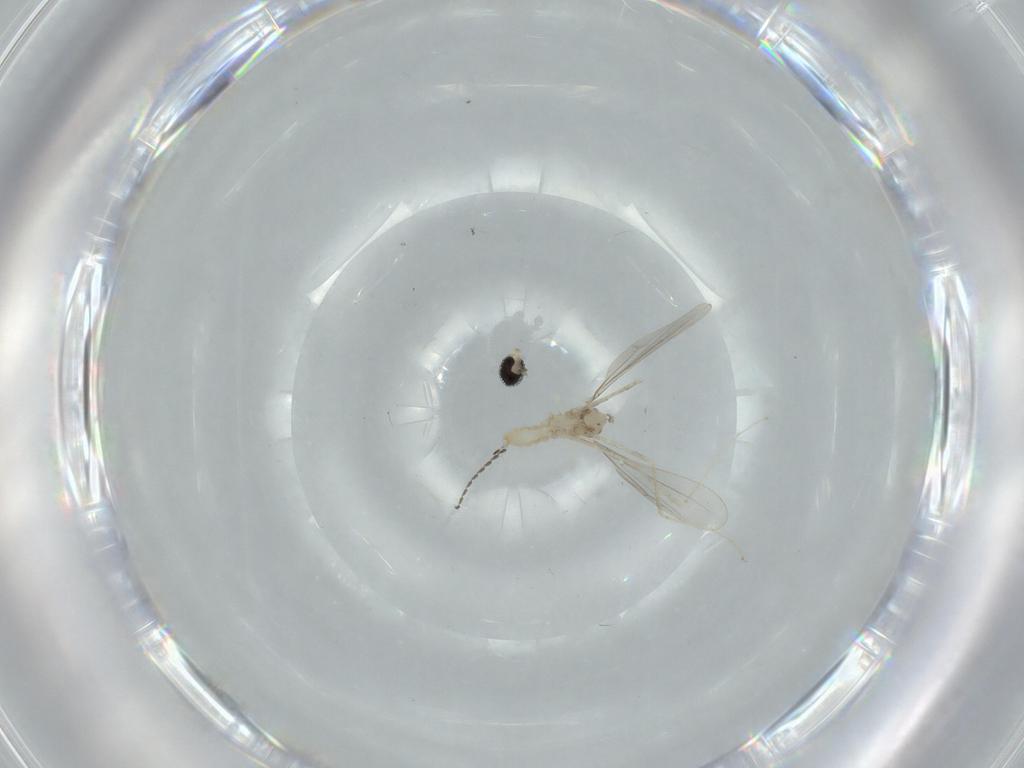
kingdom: Animalia
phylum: Arthropoda
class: Insecta
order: Diptera
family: Cecidomyiidae
